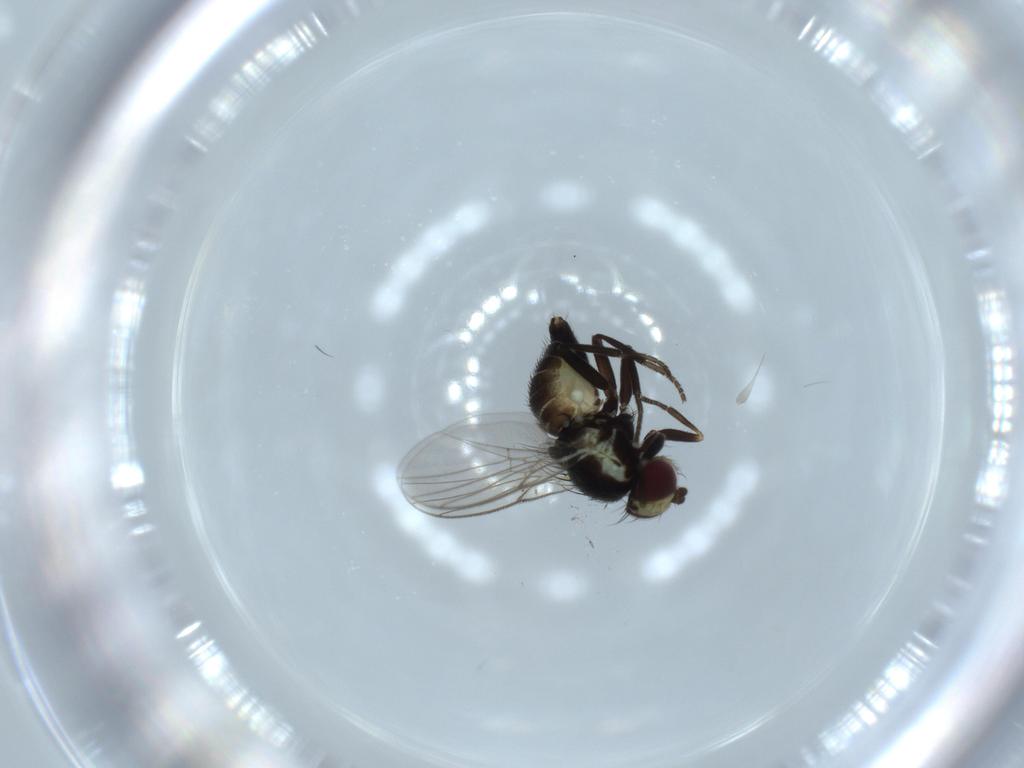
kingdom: Animalia
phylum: Arthropoda
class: Insecta
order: Diptera
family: Agromyzidae
